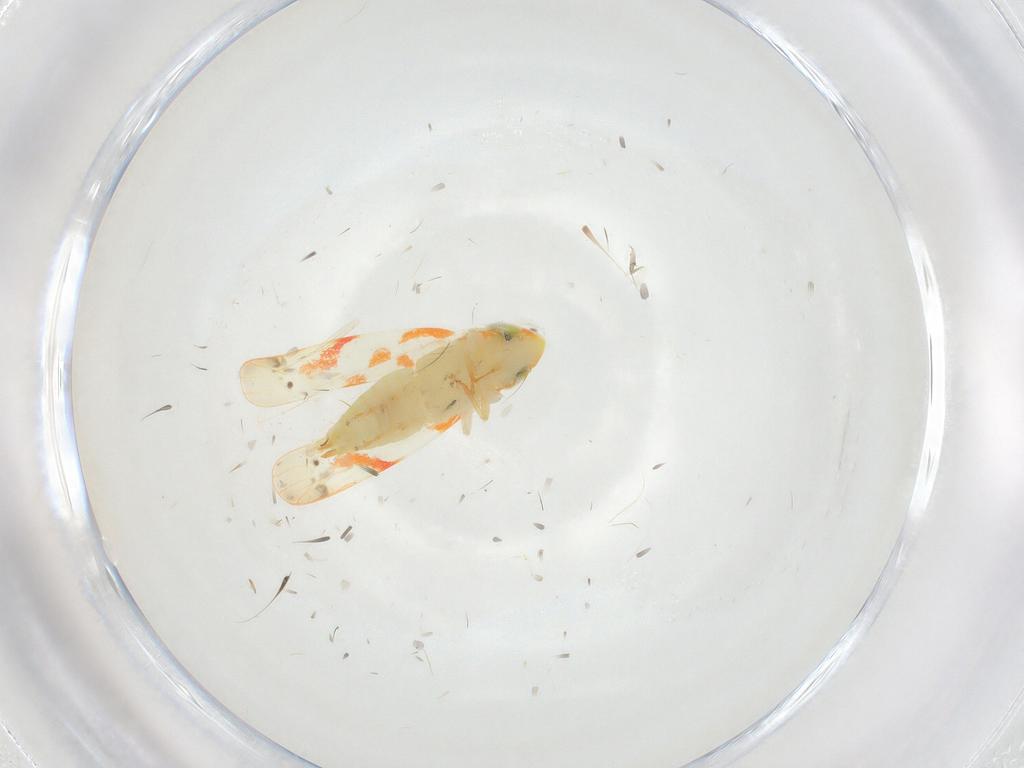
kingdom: Animalia
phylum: Arthropoda
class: Insecta
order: Hemiptera
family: Cicadellidae
